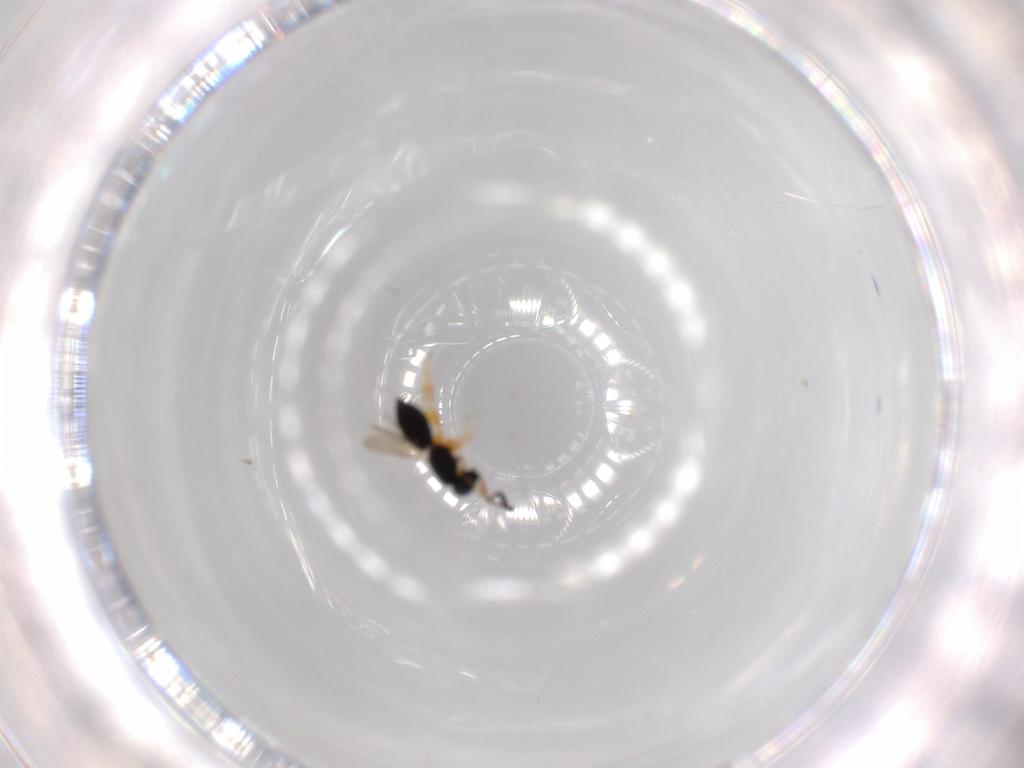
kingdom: Animalia
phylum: Arthropoda
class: Insecta
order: Hymenoptera
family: Scelionidae
